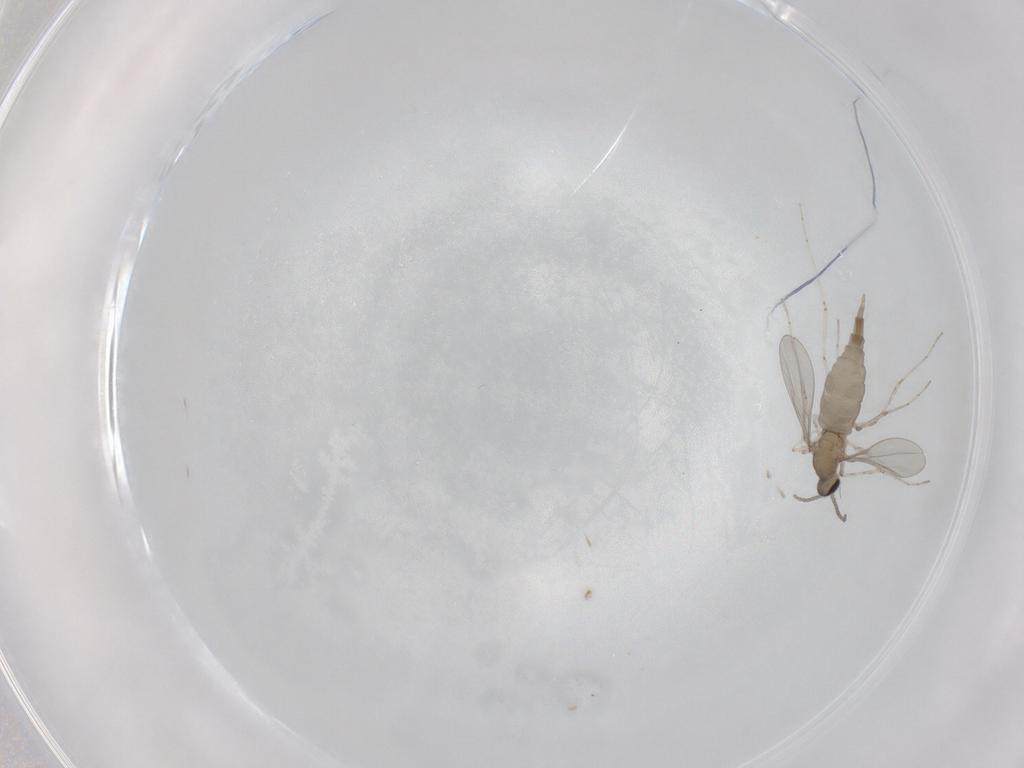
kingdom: Animalia
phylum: Arthropoda
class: Insecta
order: Diptera
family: Cecidomyiidae
